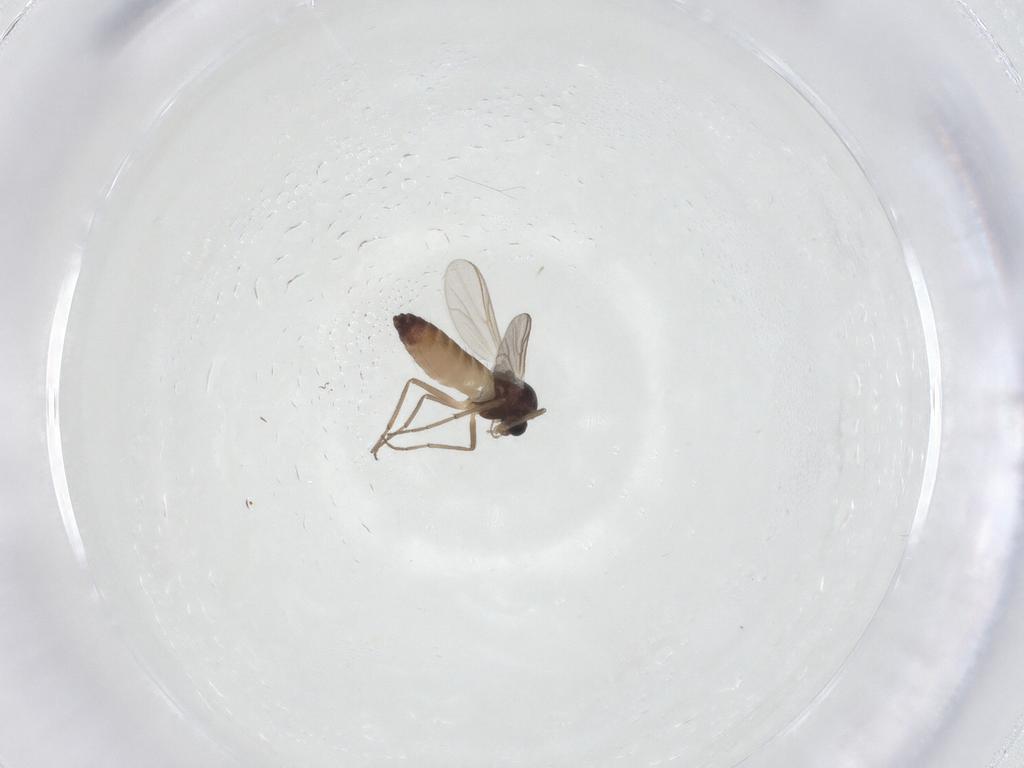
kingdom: Animalia
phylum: Arthropoda
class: Insecta
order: Diptera
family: Chironomidae
